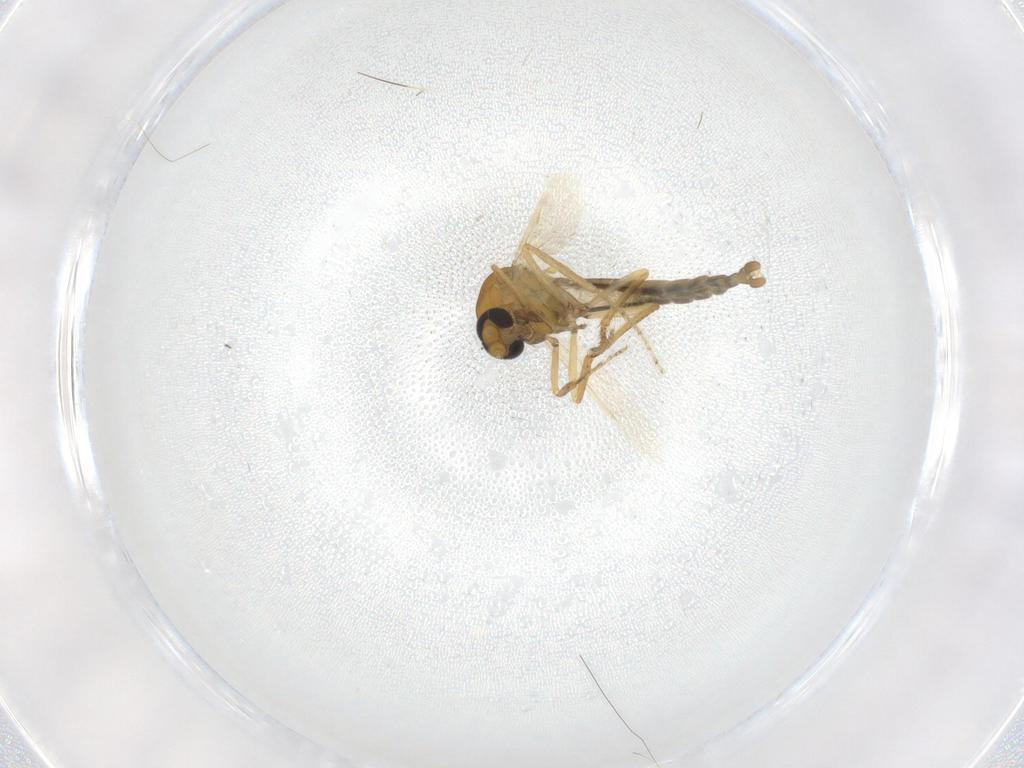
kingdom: Animalia
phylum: Arthropoda
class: Insecta
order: Diptera
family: Ceratopogonidae
